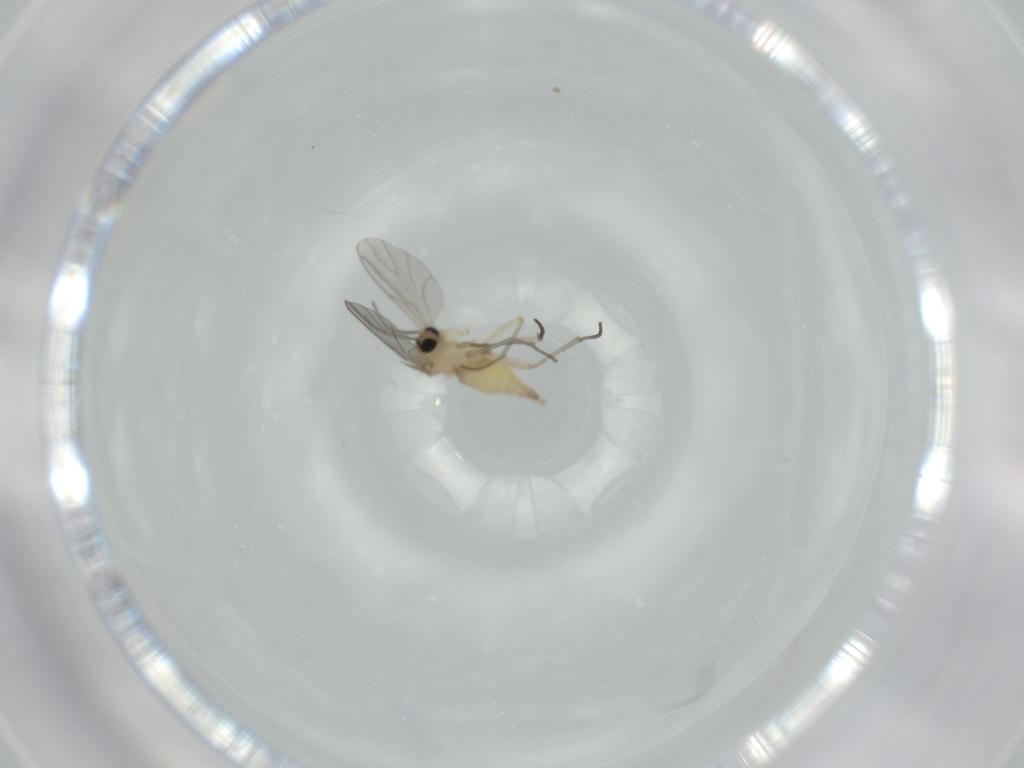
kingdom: Animalia
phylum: Arthropoda
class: Insecta
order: Diptera
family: Sciaridae
